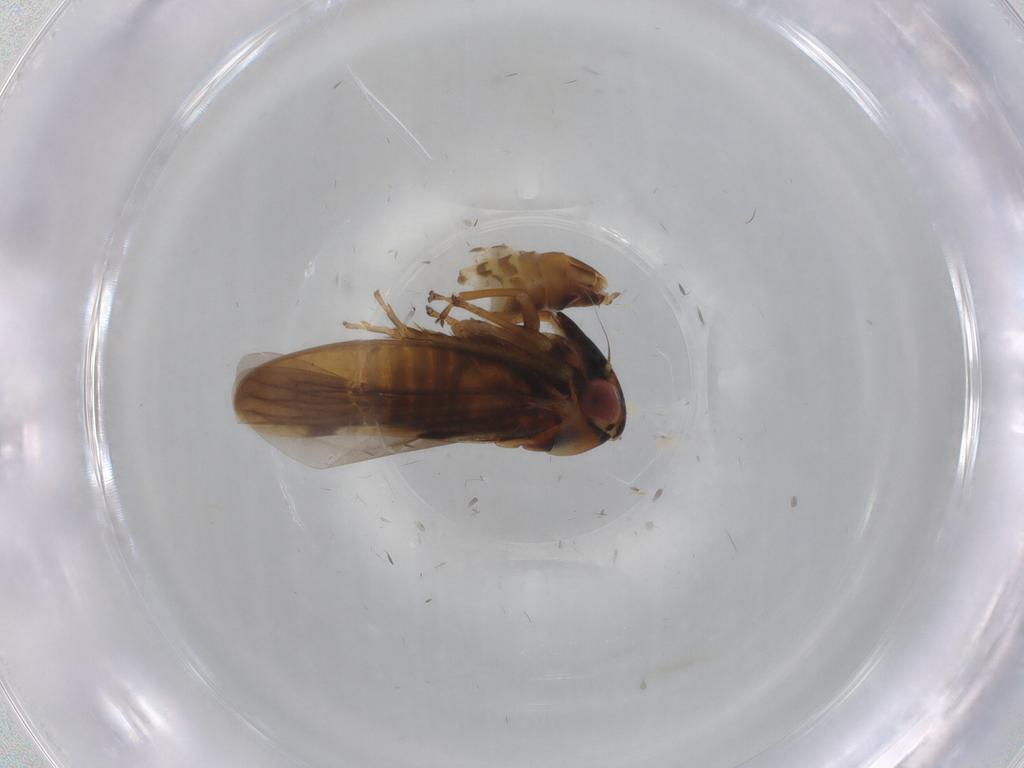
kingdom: Animalia
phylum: Arthropoda
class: Insecta
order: Hemiptera
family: Cicadellidae
